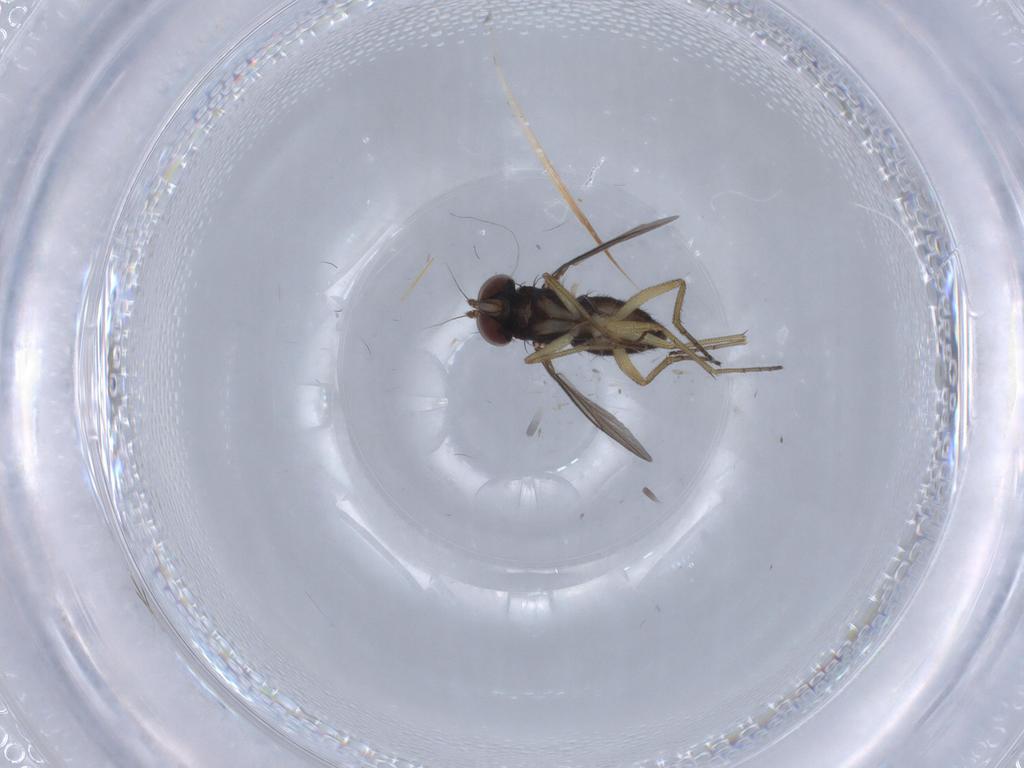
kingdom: Animalia
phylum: Arthropoda
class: Insecta
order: Diptera
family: Dolichopodidae
